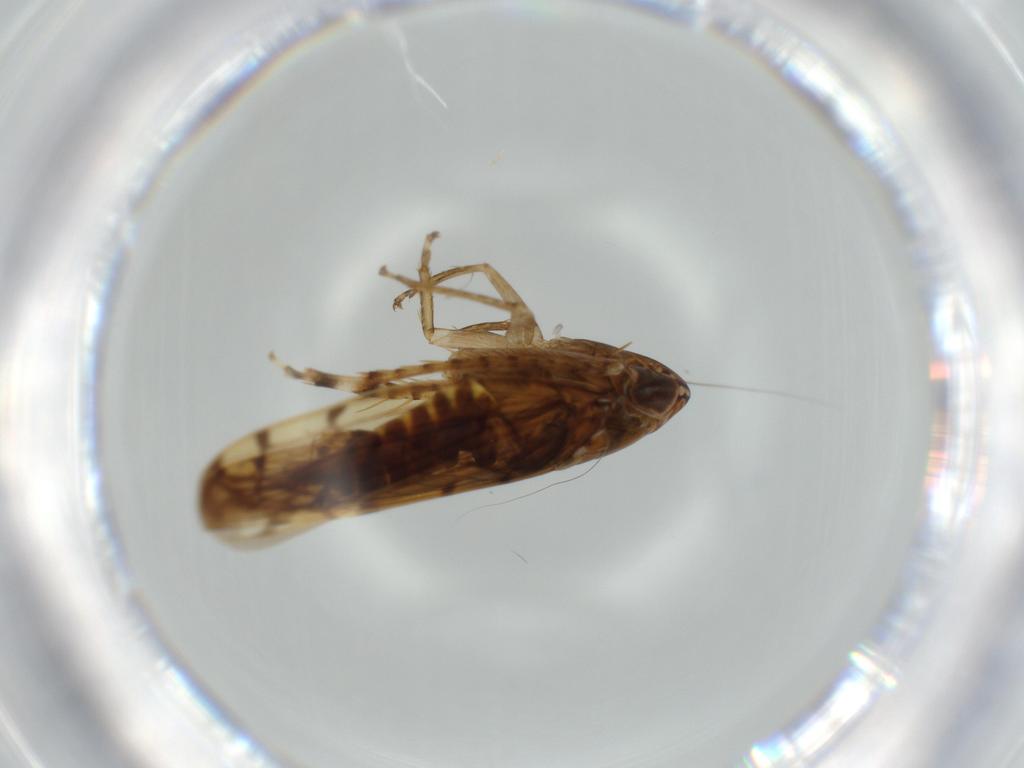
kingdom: Animalia
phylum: Arthropoda
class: Insecta
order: Hemiptera
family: Cicadellidae
